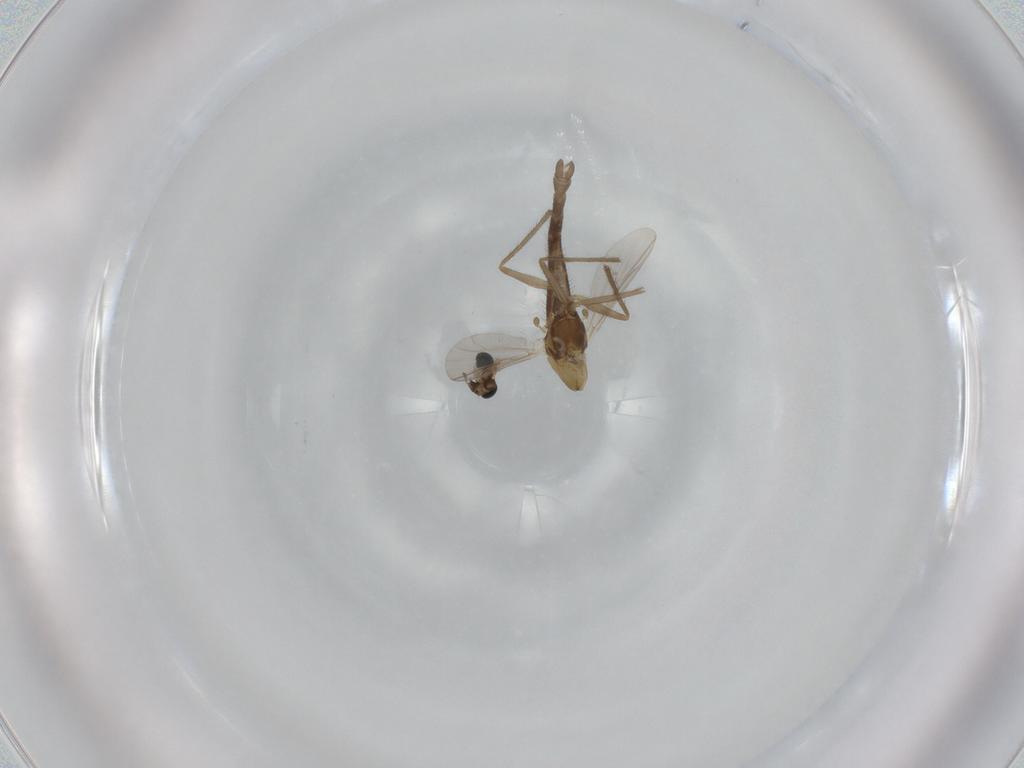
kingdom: Animalia
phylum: Arthropoda
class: Insecta
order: Diptera
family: Chironomidae
